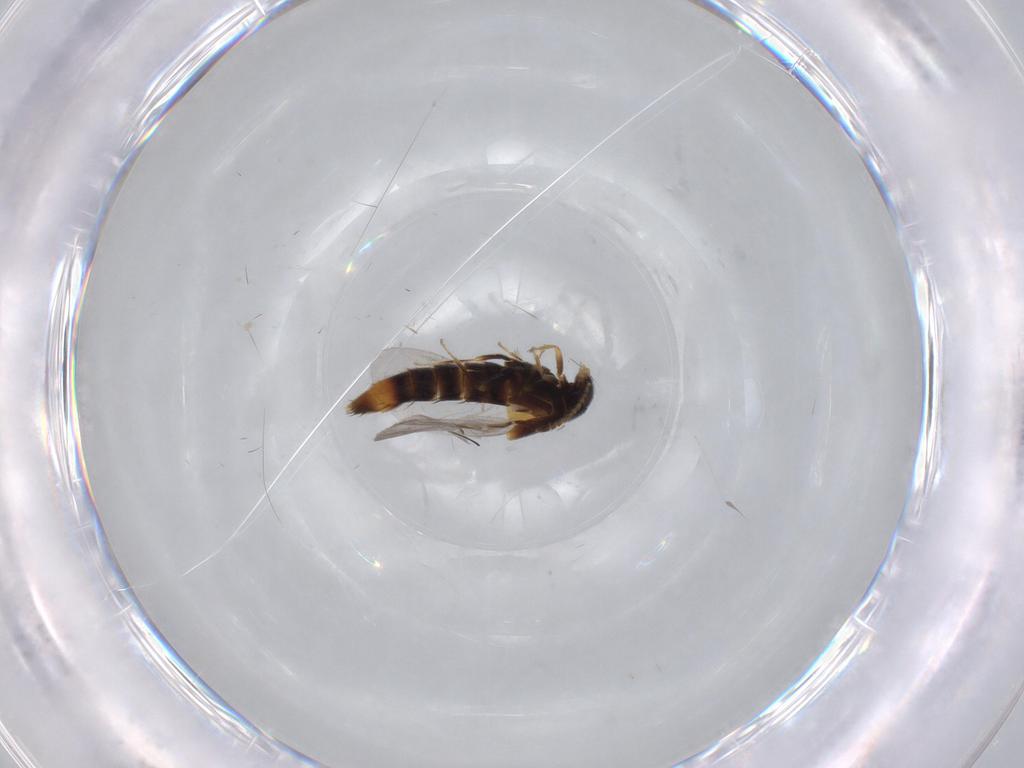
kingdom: Animalia
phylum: Arthropoda
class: Insecta
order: Coleoptera
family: Staphylinidae
